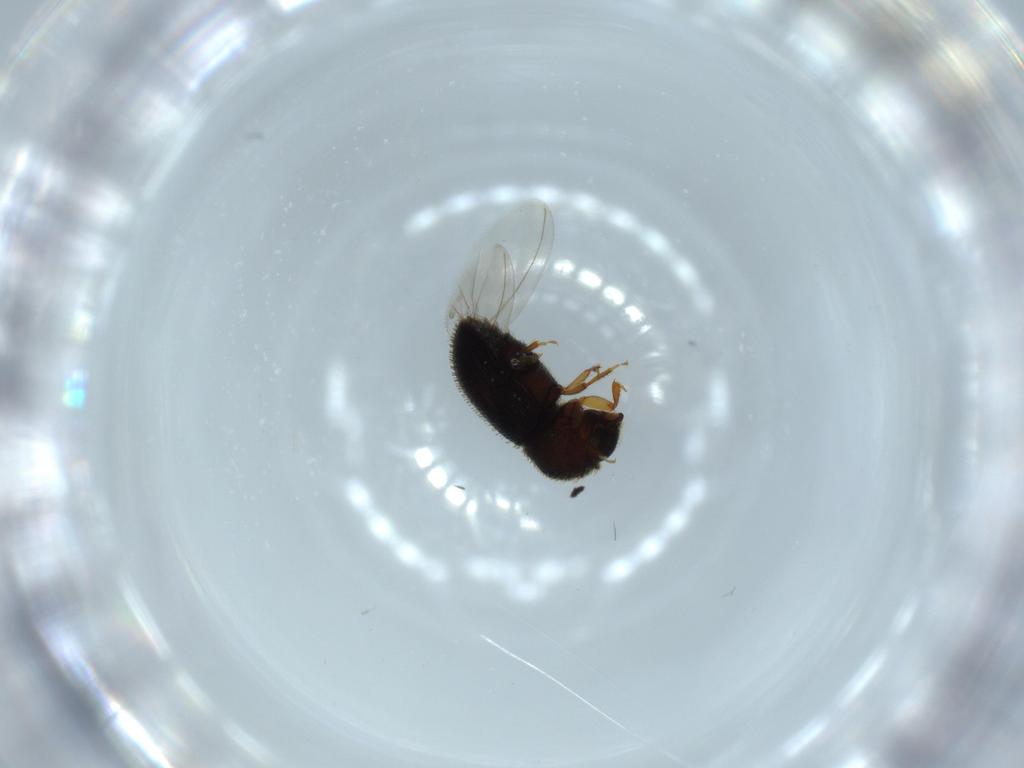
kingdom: Animalia
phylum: Arthropoda
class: Insecta
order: Coleoptera
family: Curculionidae
